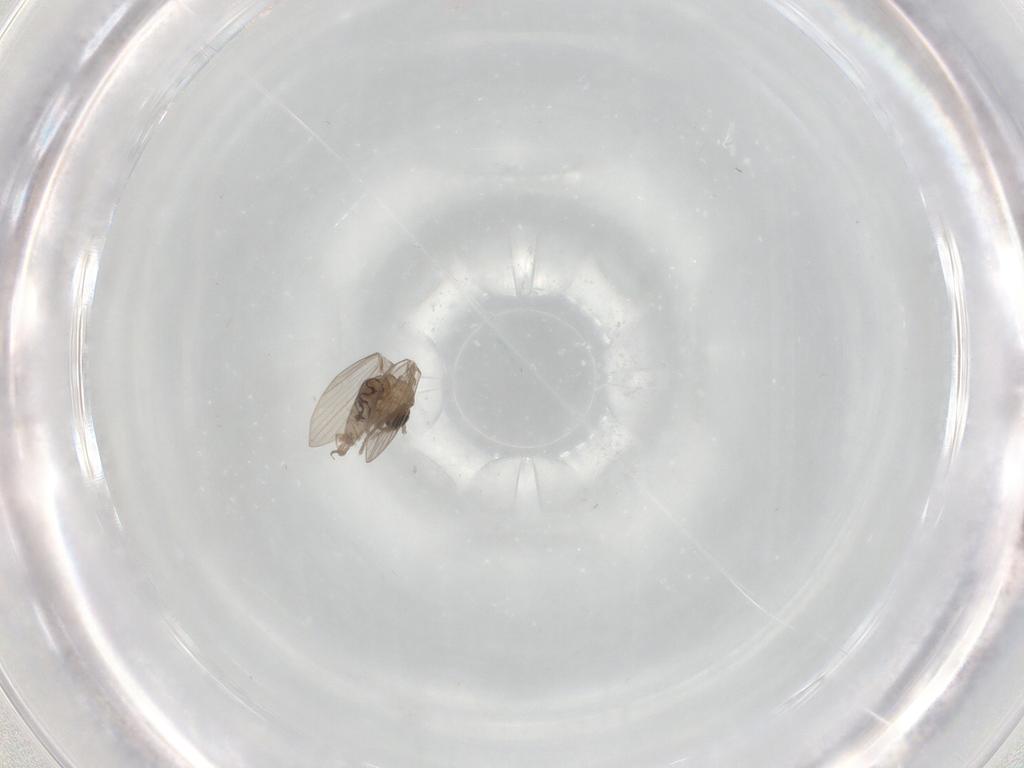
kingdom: Animalia
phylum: Arthropoda
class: Insecta
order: Diptera
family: Psychodidae
